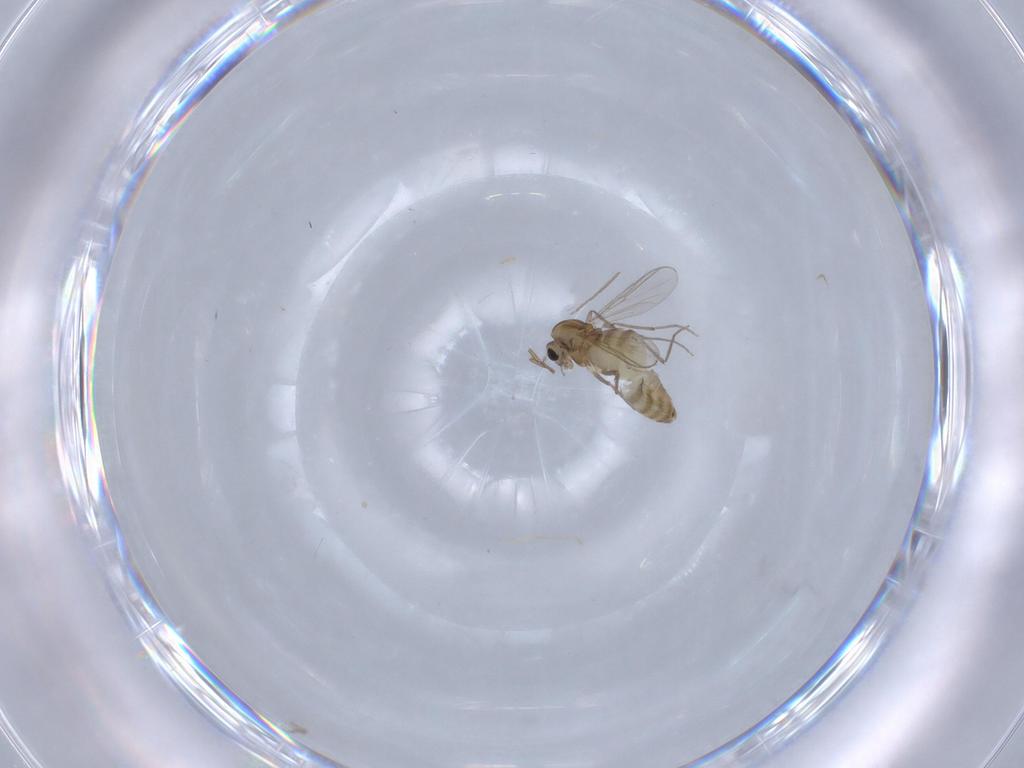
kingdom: Animalia
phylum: Arthropoda
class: Insecta
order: Diptera
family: Chironomidae
